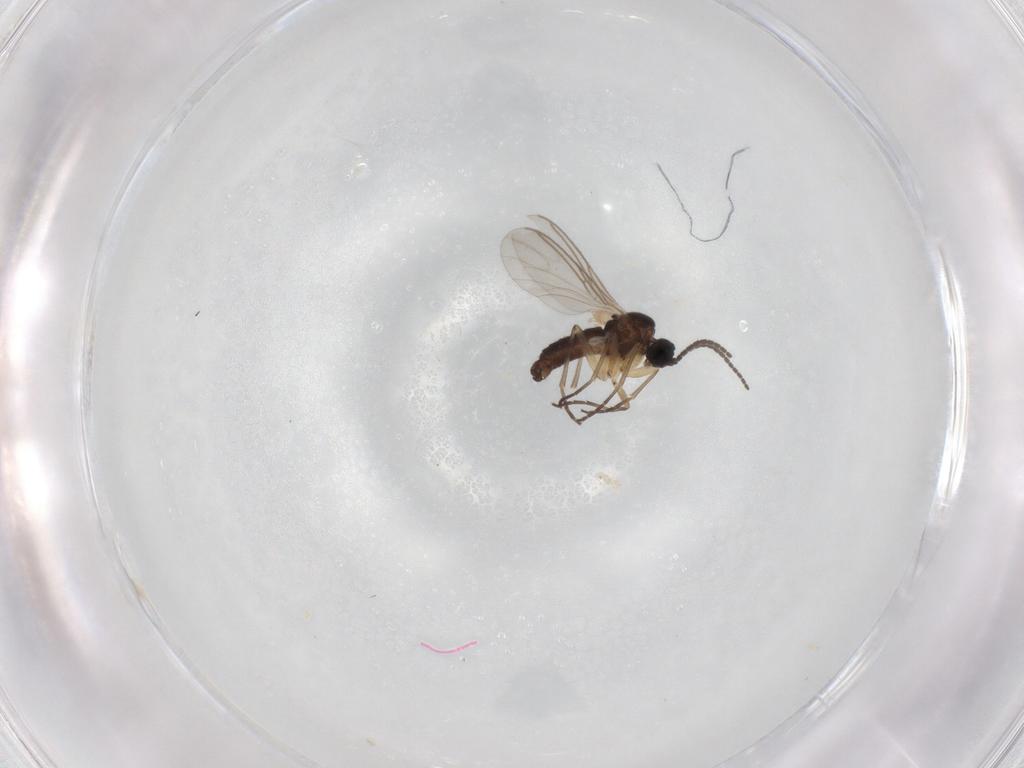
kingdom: Animalia
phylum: Arthropoda
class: Insecta
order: Diptera
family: Sciaridae
